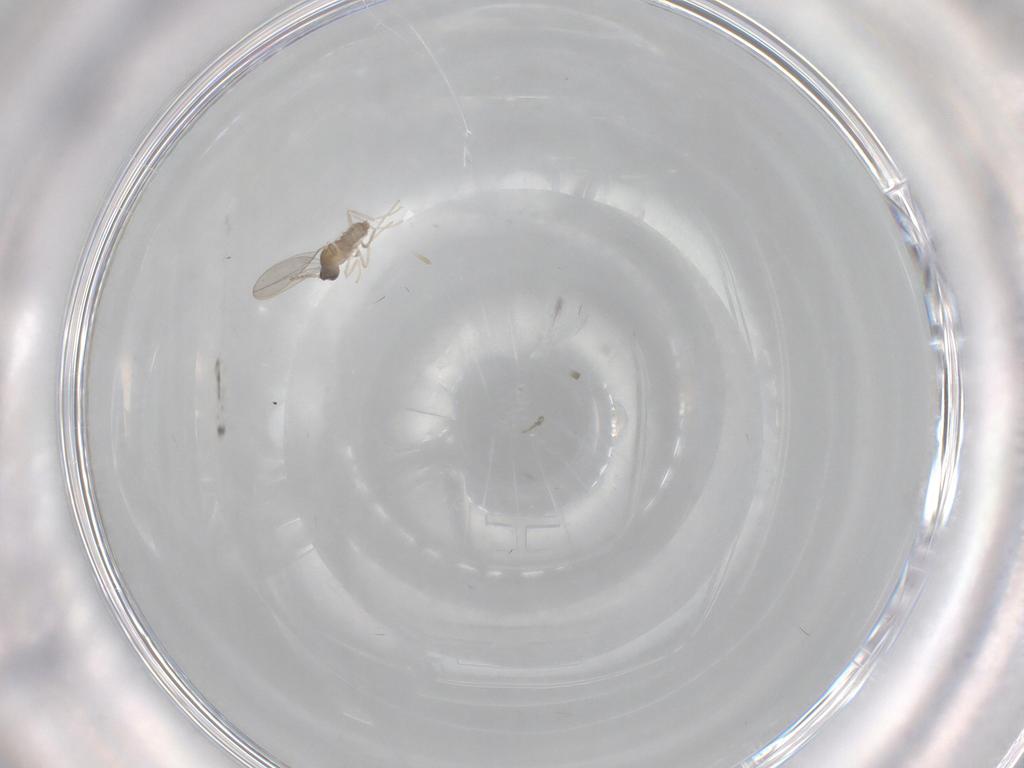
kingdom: Animalia
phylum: Arthropoda
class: Insecta
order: Diptera
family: Cecidomyiidae
